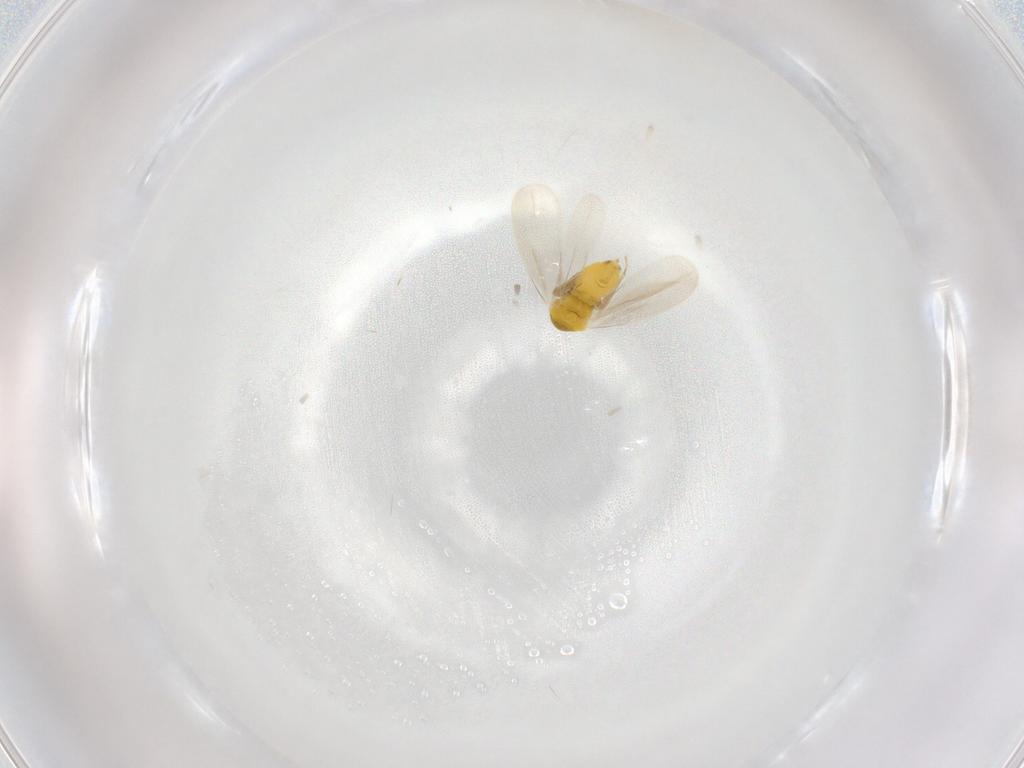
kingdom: Animalia
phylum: Arthropoda
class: Insecta
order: Hemiptera
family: Aleyrodidae
